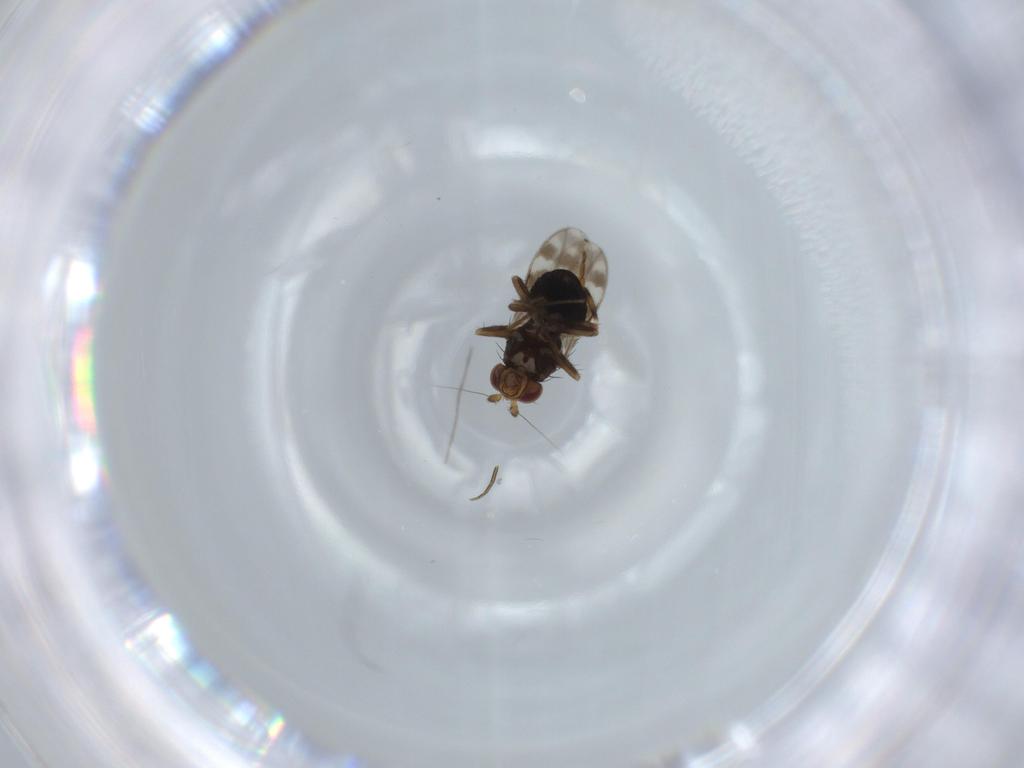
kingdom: Animalia
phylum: Arthropoda
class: Insecta
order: Diptera
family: Sphaeroceridae
